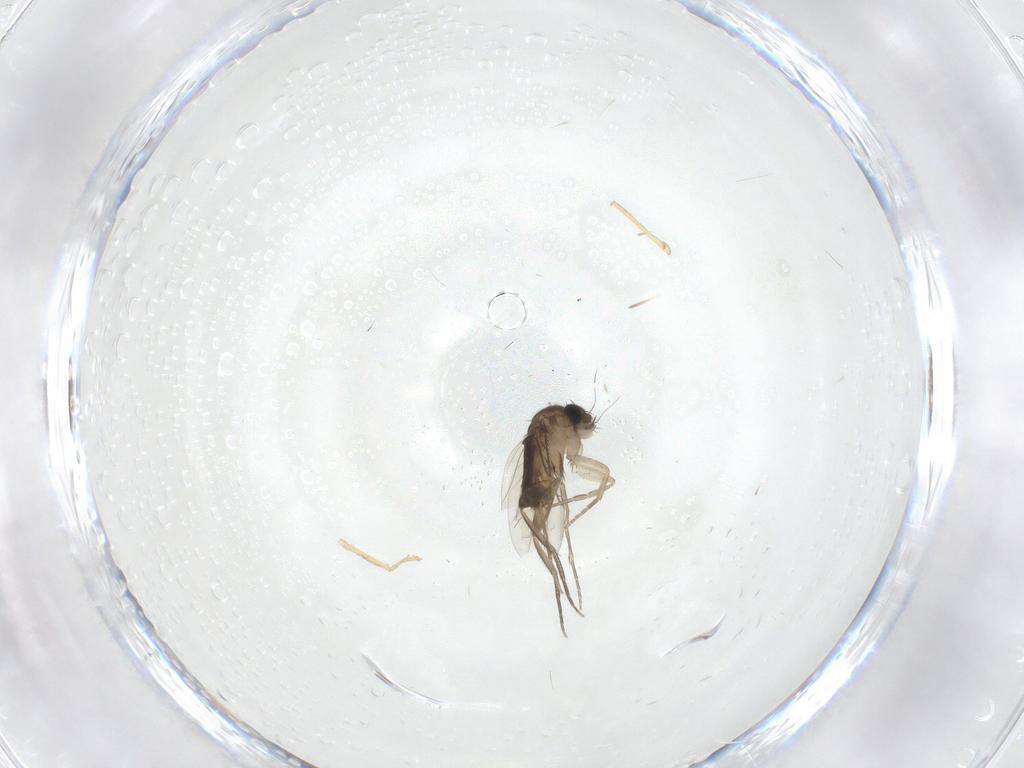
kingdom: Animalia
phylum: Arthropoda
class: Insecta
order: Diptera
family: Phoridae
